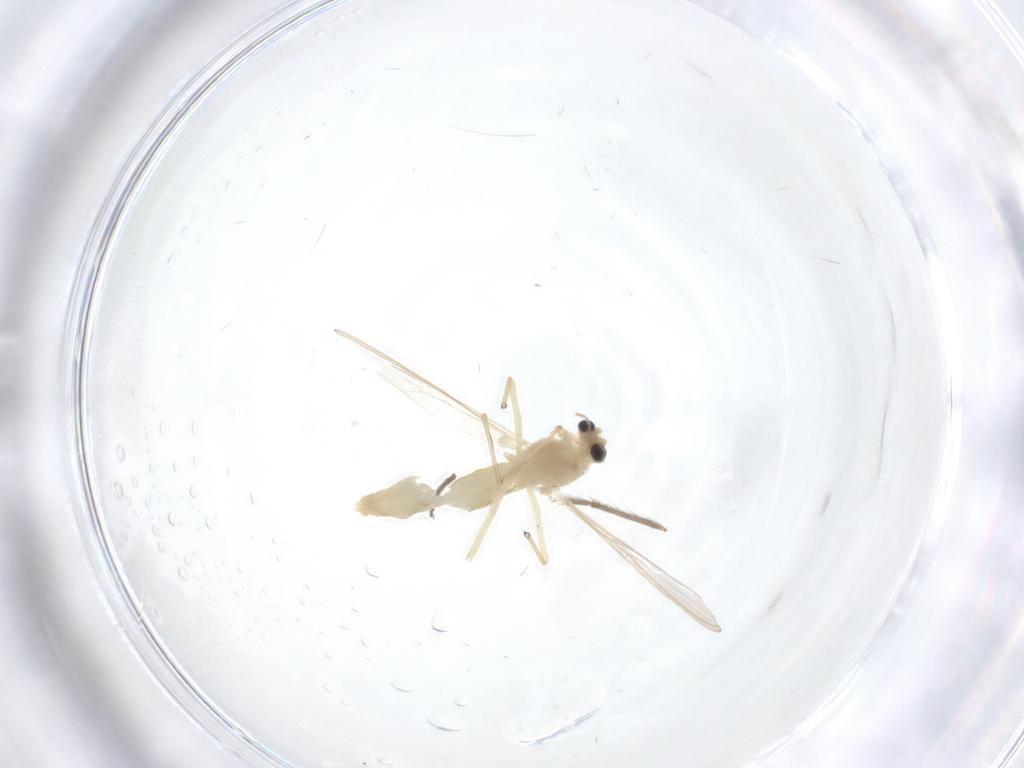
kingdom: Animalia
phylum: Arthropoda
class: Insecta
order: Diptera
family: Chironomidae
